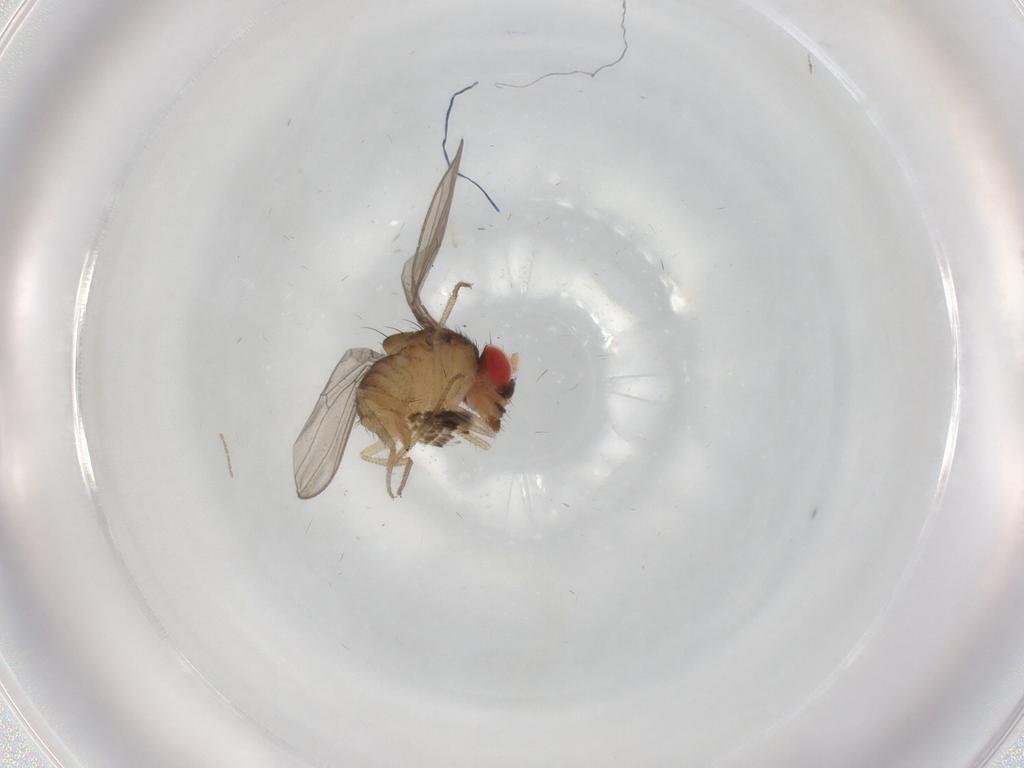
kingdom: Animalia
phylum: Arthropoda
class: Insecta
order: Diptera
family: Drosophilidae
